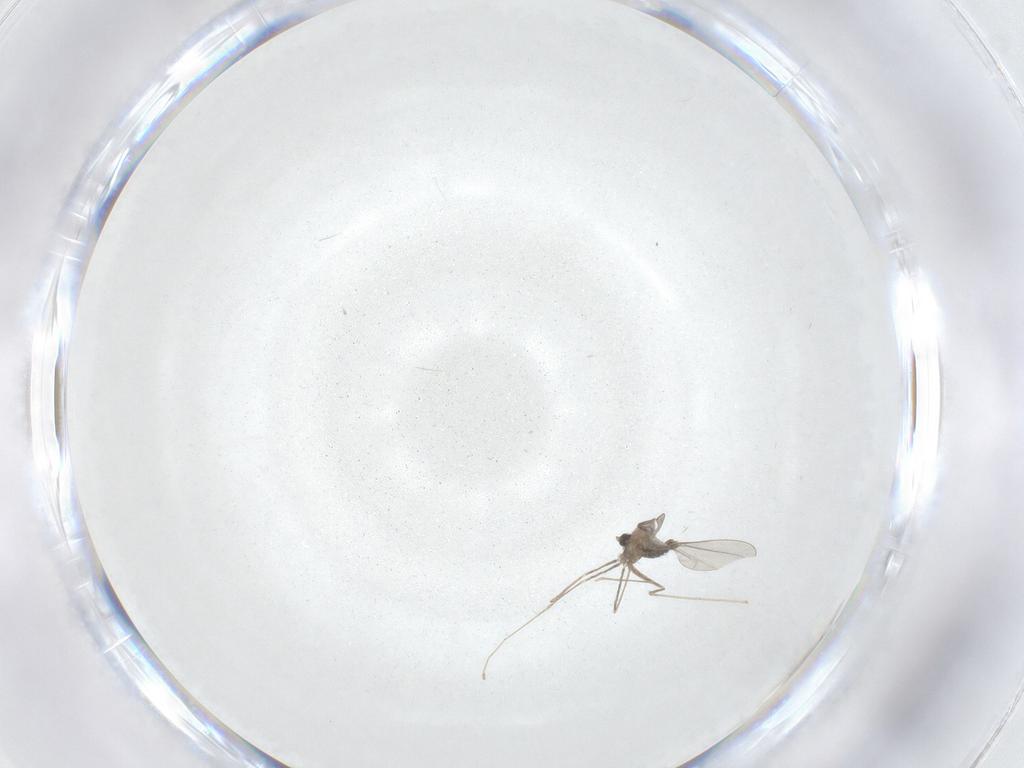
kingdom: Animalia
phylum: Arthropoda
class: Insecta
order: Diptera
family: Cecidomyiidae
